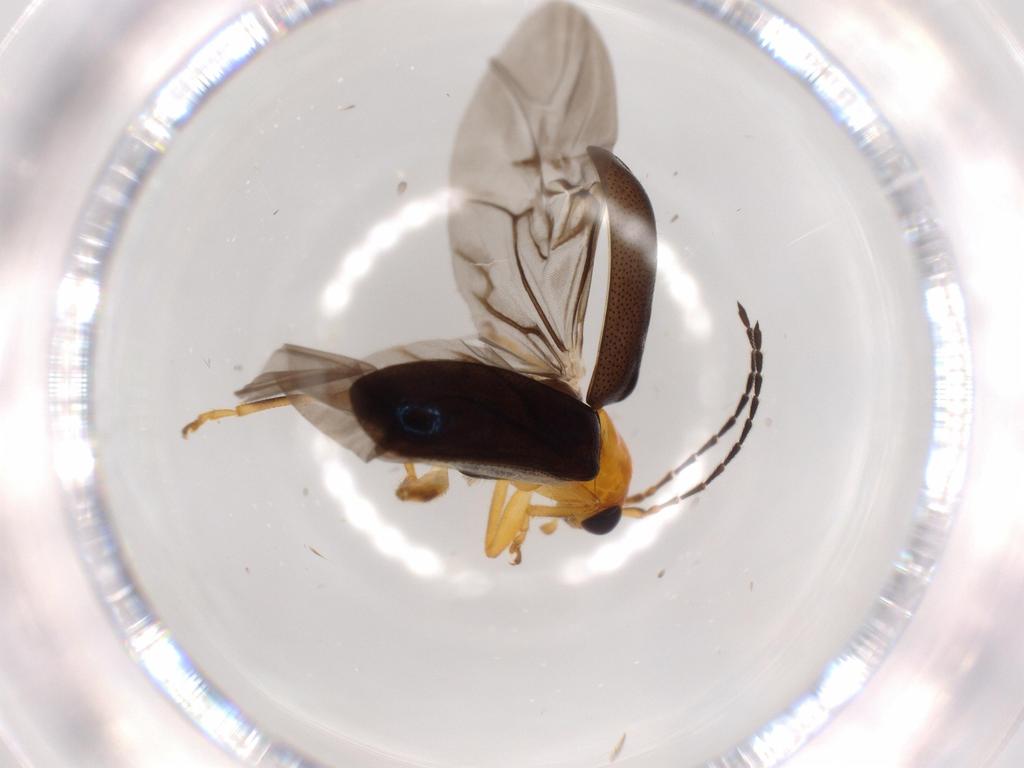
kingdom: Animalia
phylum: Arthropoda
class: Insecta
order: Coleoptera
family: Chrysomelidae
